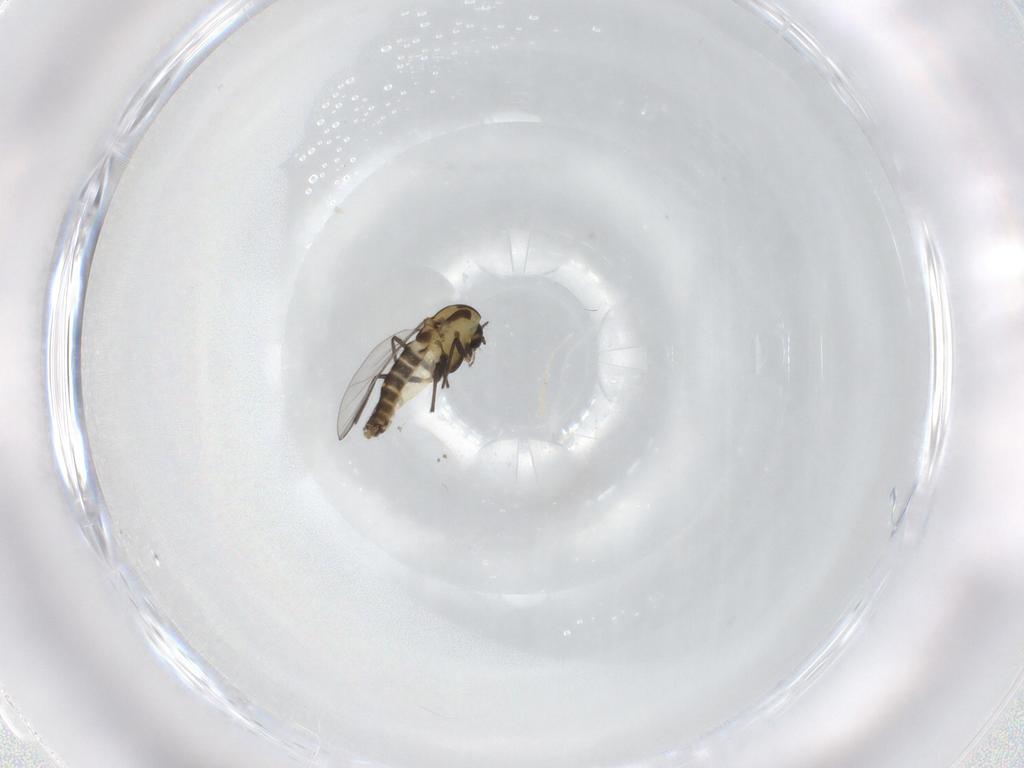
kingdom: Animalia
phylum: Arthropoda
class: Insecta
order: Diptera
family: Chironomidae
